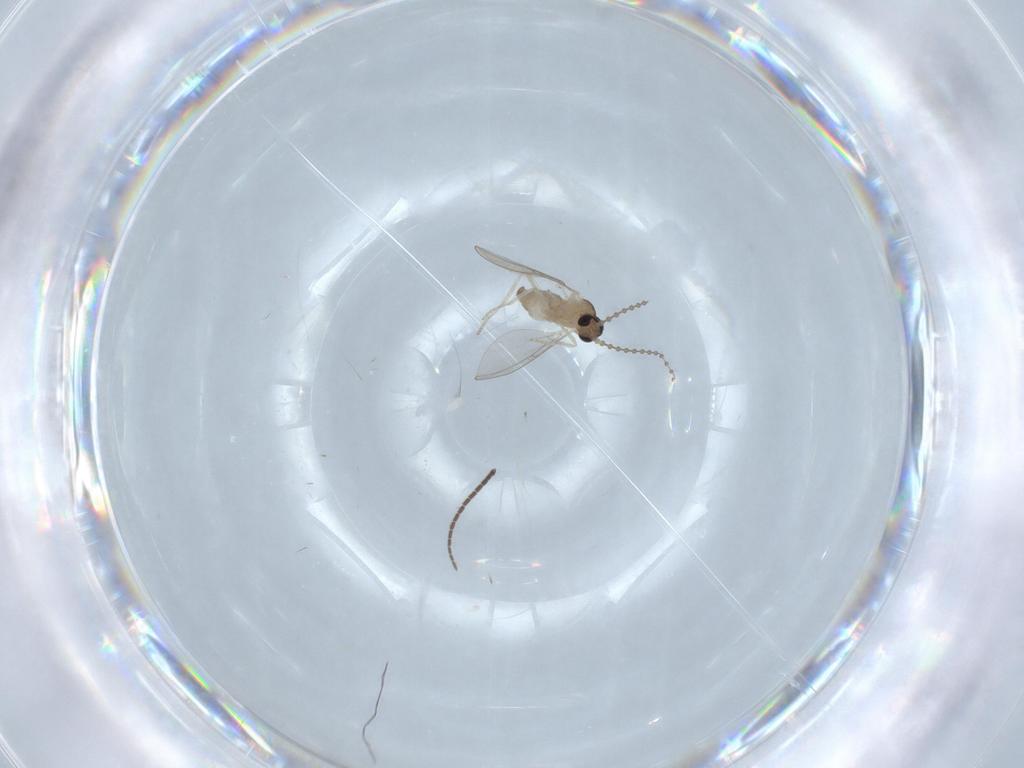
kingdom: Animalia
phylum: Arthropoda
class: Insecta
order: Diptera
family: Cecidomyiidae
